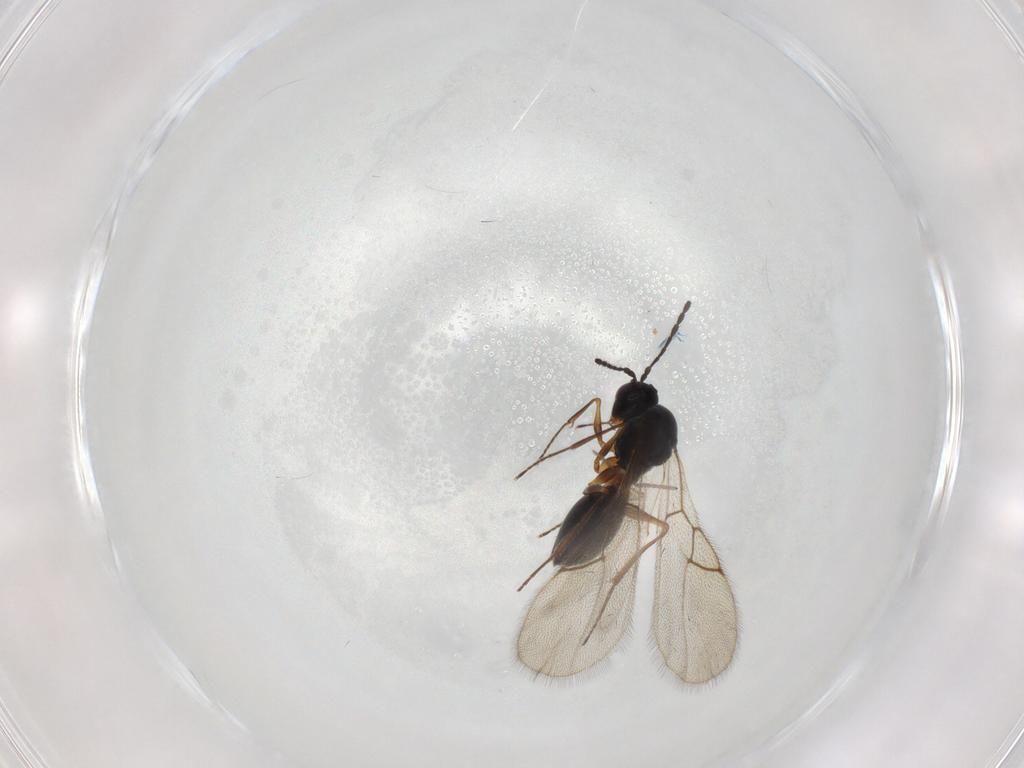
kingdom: Animalia
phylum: Arthropoda
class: Insecta
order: Hymenoptera
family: Figitidae
